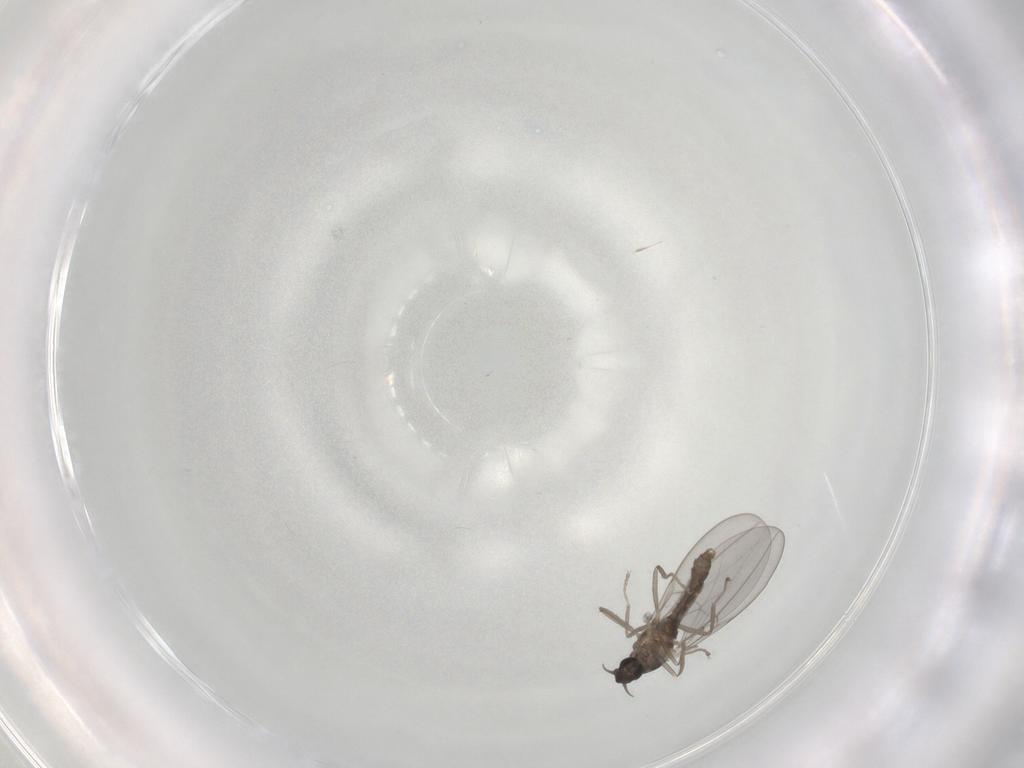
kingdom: Animalia
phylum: Arthropoda
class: Insecta
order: Diptera
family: Cecidomyiidae
